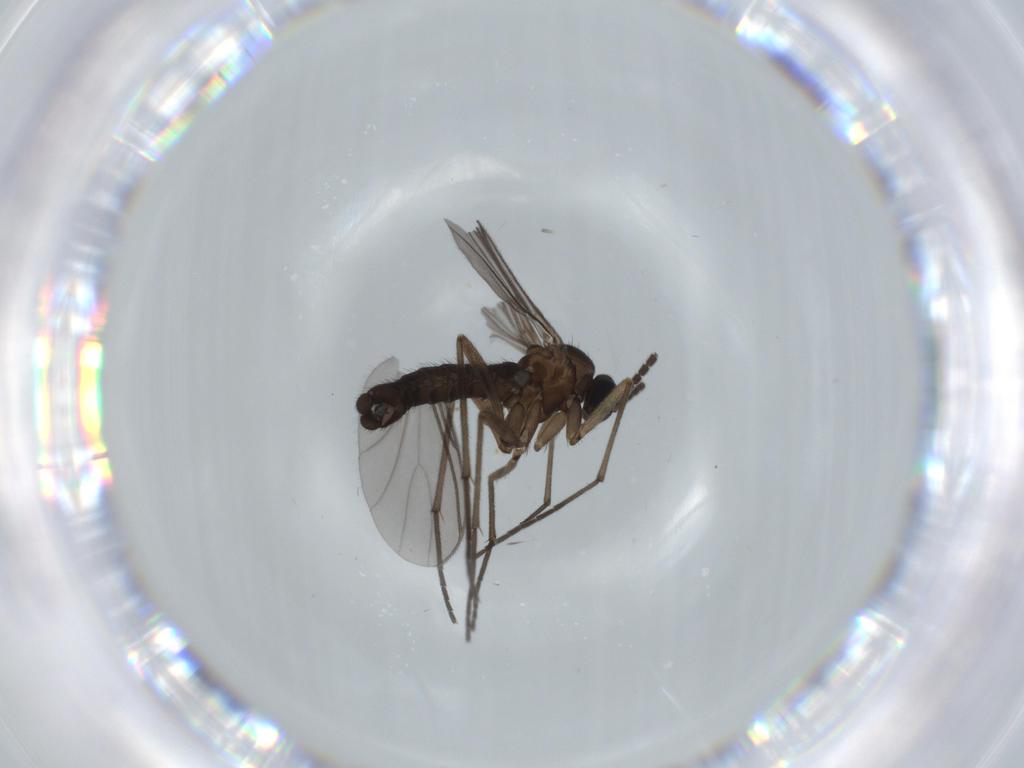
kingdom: Animalia
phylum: Arthropoda
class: Insecta
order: Diptera
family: Sciaridae
